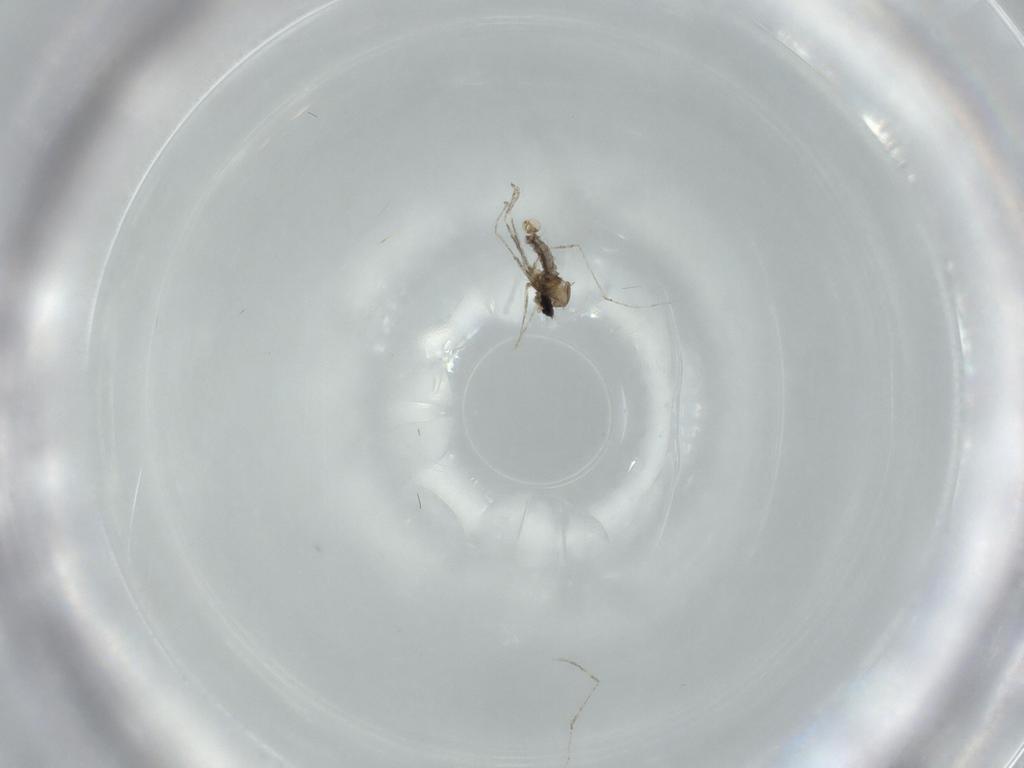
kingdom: Animalia
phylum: Arthropoda
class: Insecta
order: Diptera
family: Cecidomyiidae
